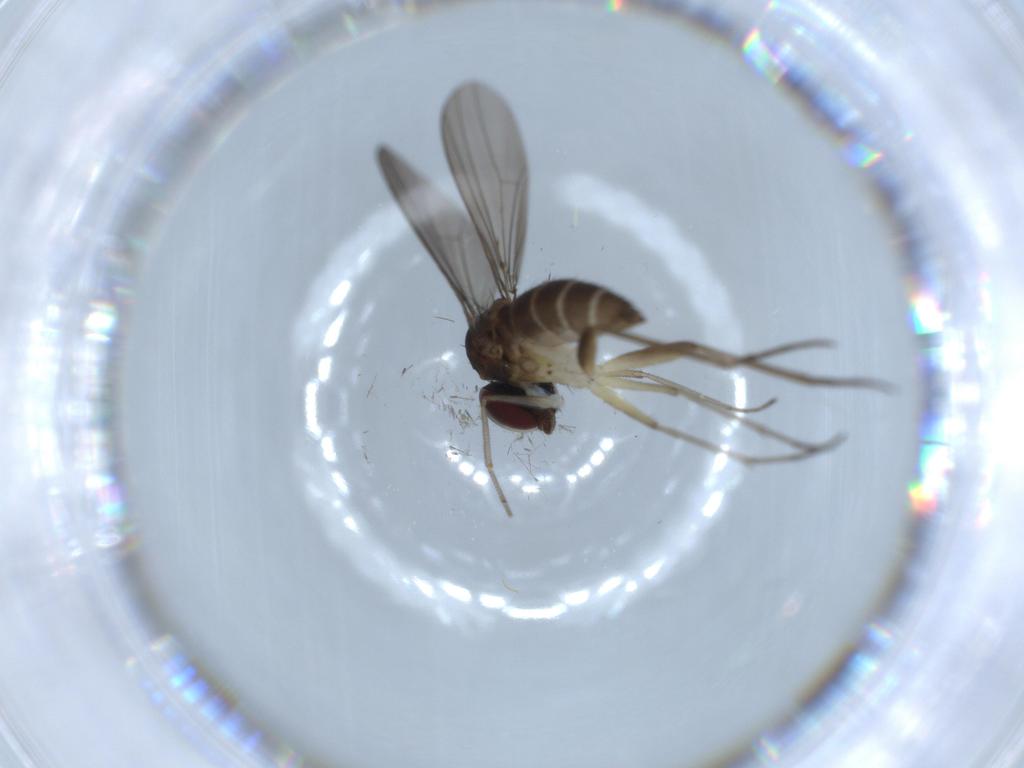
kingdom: Animalia
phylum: Arthropoda
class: Insecta
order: Diptera
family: Dolichopodidae
